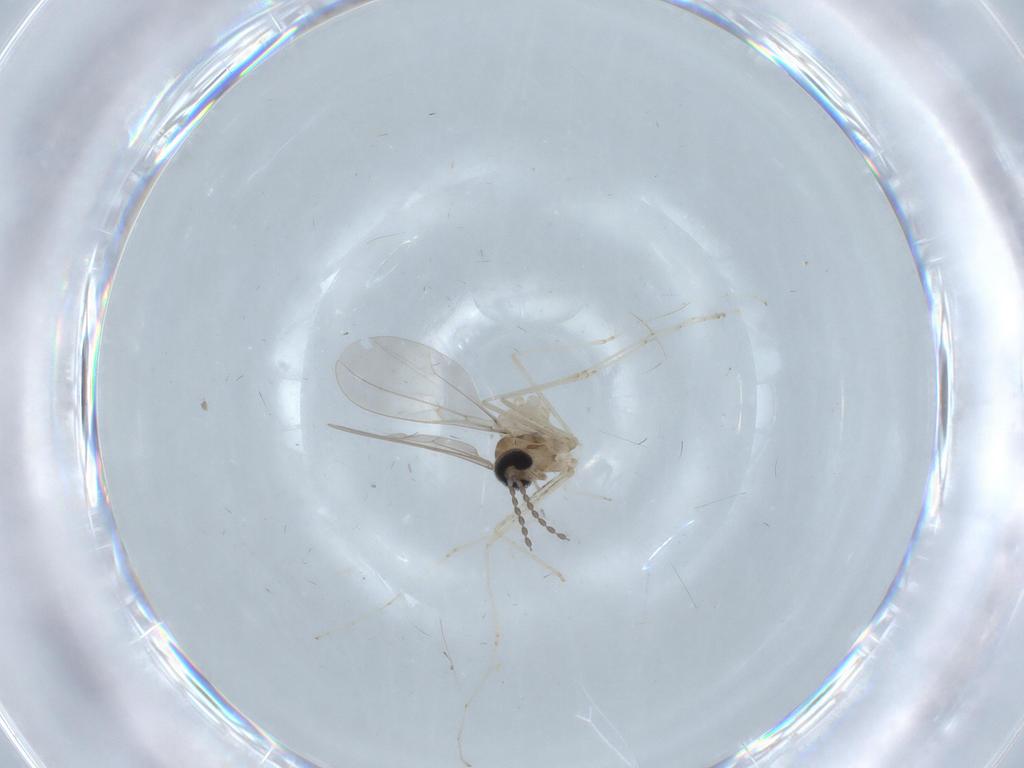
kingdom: Animalia
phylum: Arthropoda
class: Insecta
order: Diptera
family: Cecidomyiidae
